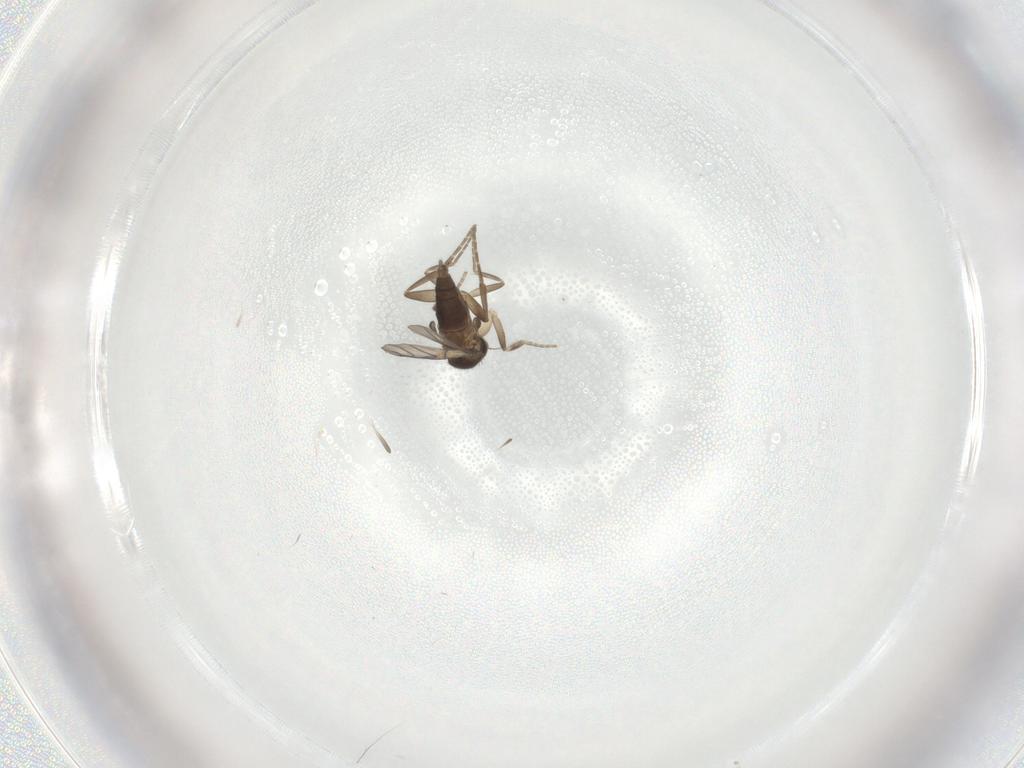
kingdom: Animalia
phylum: Arthropoda
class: Insecta
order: Diptera
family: Phoridae
